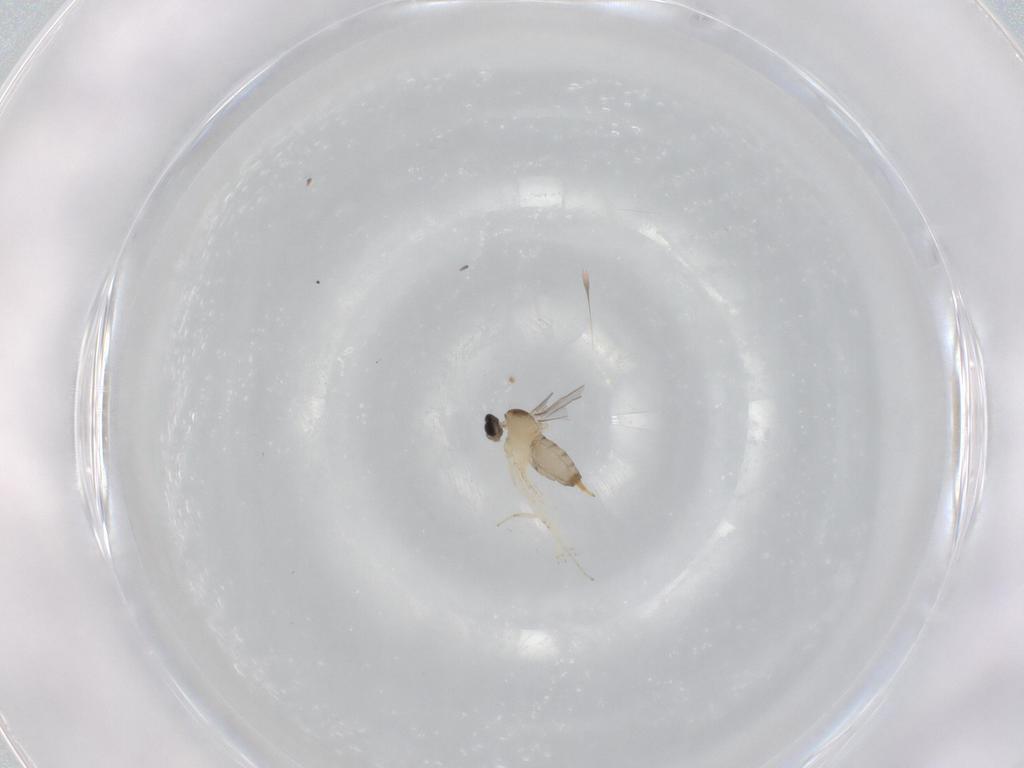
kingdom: Animalia
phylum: Arthropoda
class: Insecta
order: Diptera
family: Cecidomyiidae
